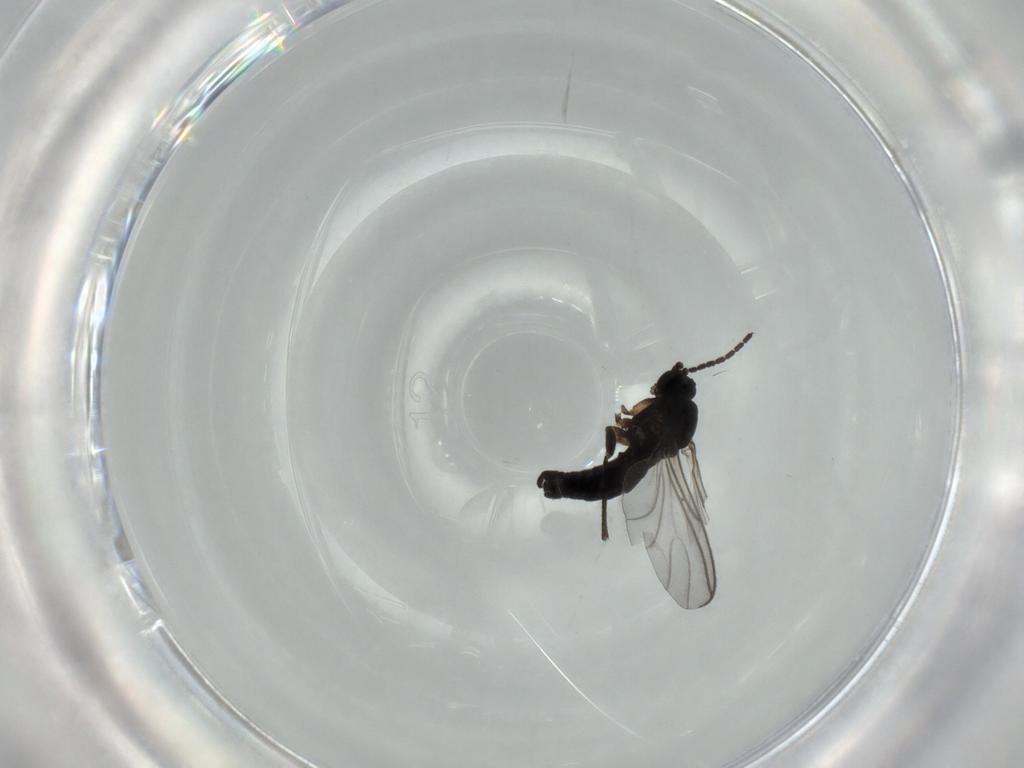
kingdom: Animalia
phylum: Arthropoda
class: Insecta
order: Diptera
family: Sciaridae
